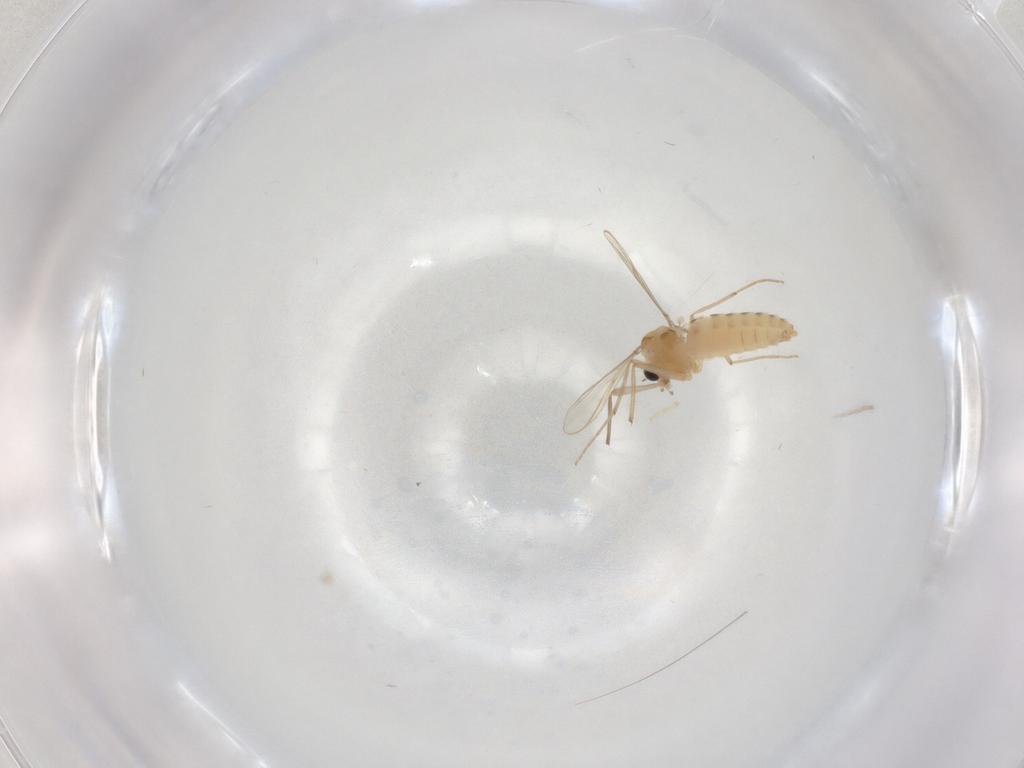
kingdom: Animalia
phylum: Arthropoda
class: Insecta
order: Diptera
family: Chironomidae
